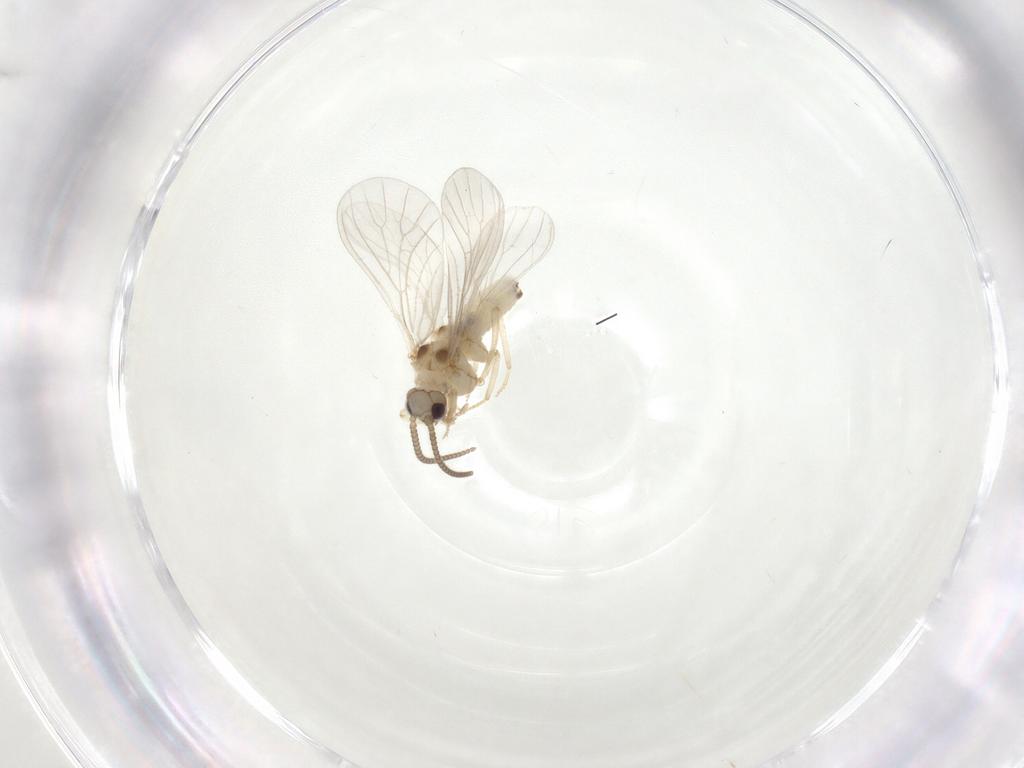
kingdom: Animalia
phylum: Arthropoda
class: Insecta
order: Neuroptera
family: Coniopterygidae
